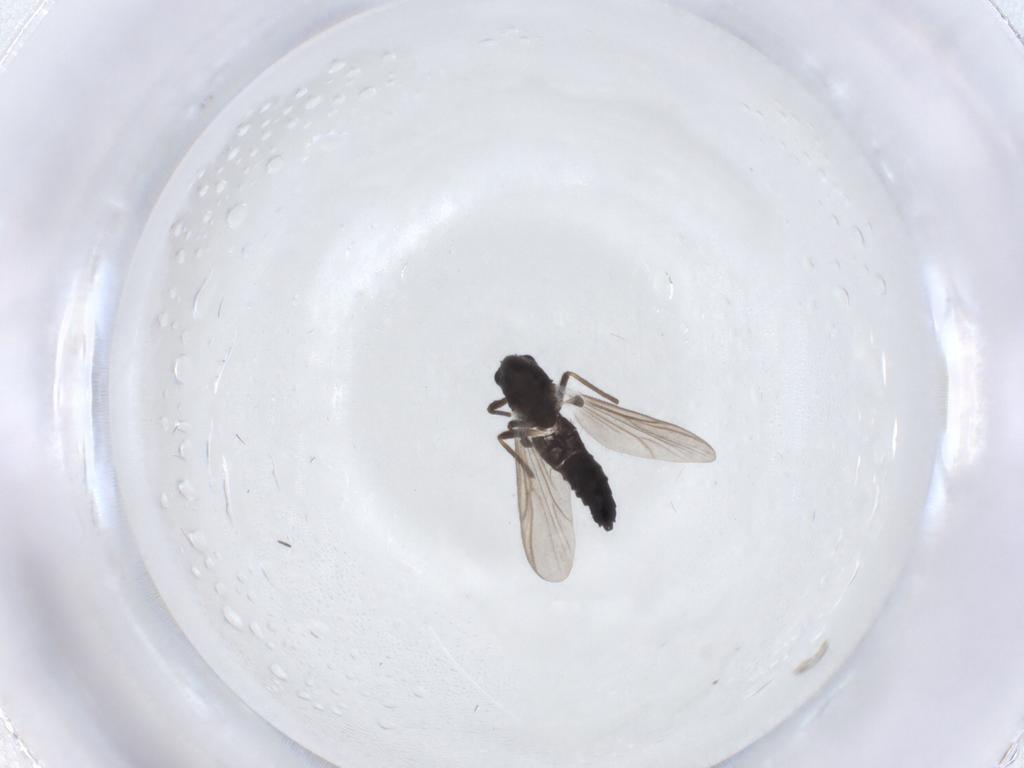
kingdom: Animalia
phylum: Arthropoda
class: Insecta
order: Diptera
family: Chironomidae
